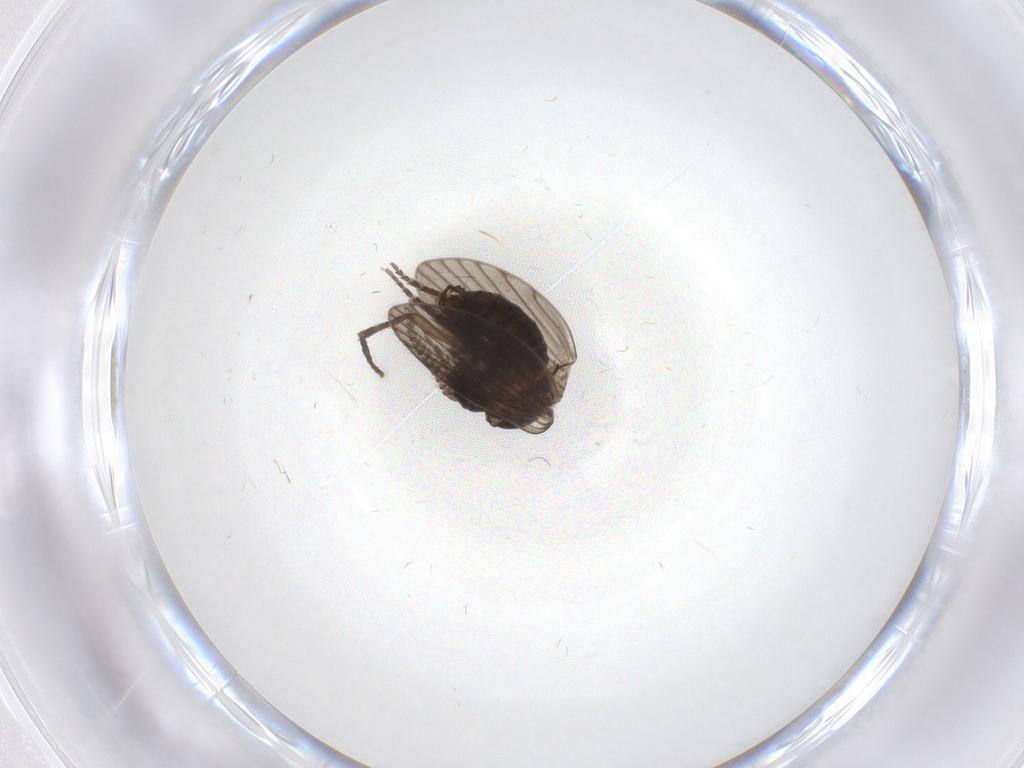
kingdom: Animalia
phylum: Arthropoda
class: Insecta
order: Diptera
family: Psychodidae
